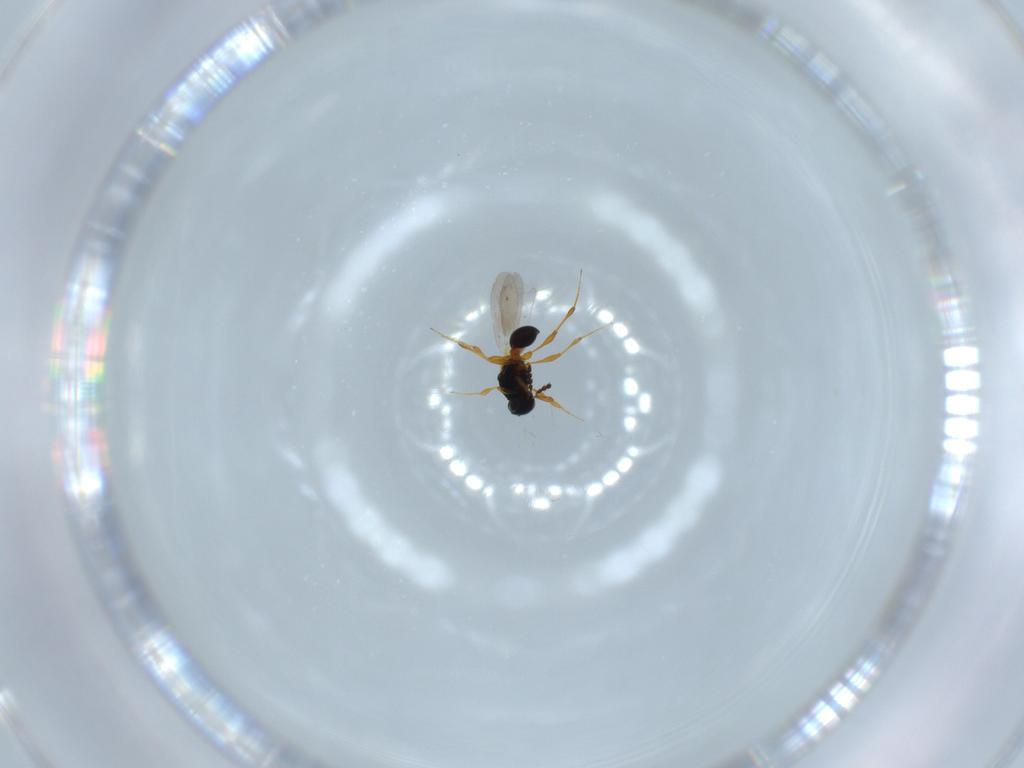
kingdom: Animalia
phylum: Arthropoda
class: Insecta
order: Hymenoptera
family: Platygastridae
